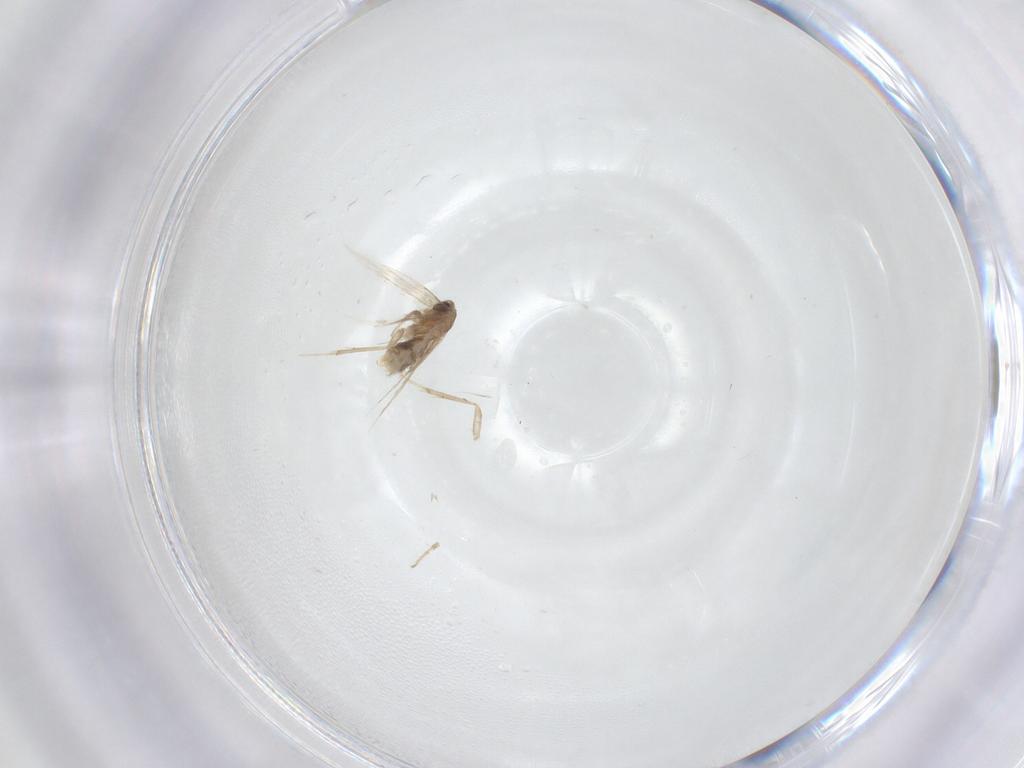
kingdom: Animalia
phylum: Arthropoda
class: Insecta
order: Lepidoptera
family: Nepticulidae
